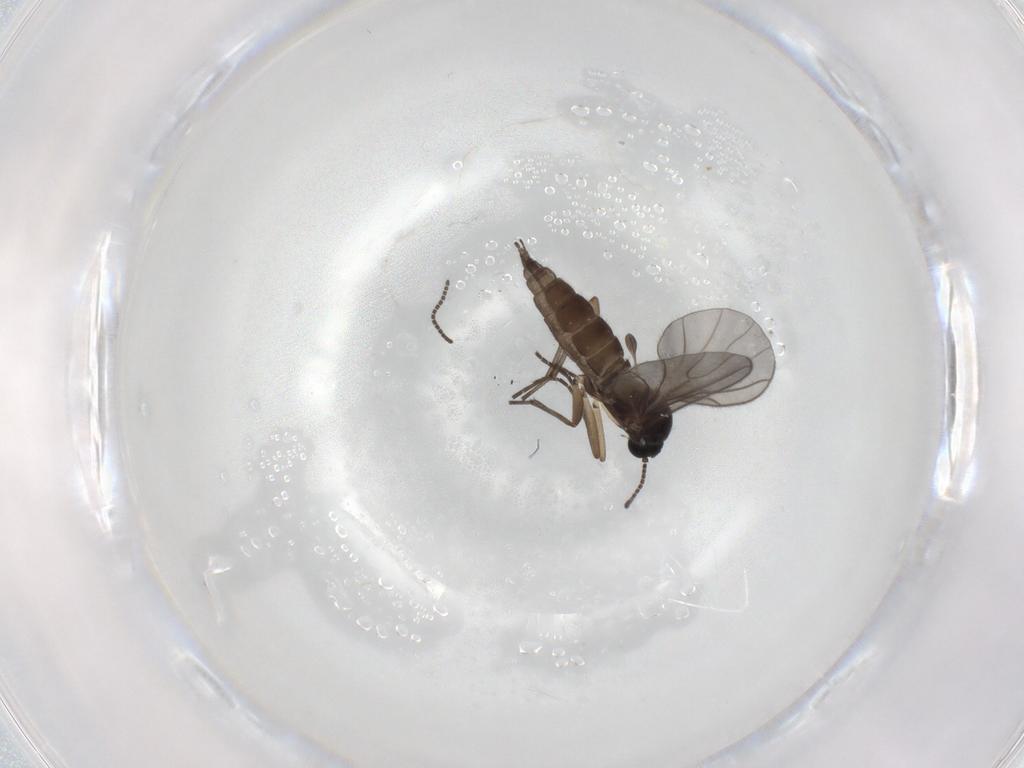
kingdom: Animalia
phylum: Arthropoda
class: Insecta
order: Diptera
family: Sciaridae
